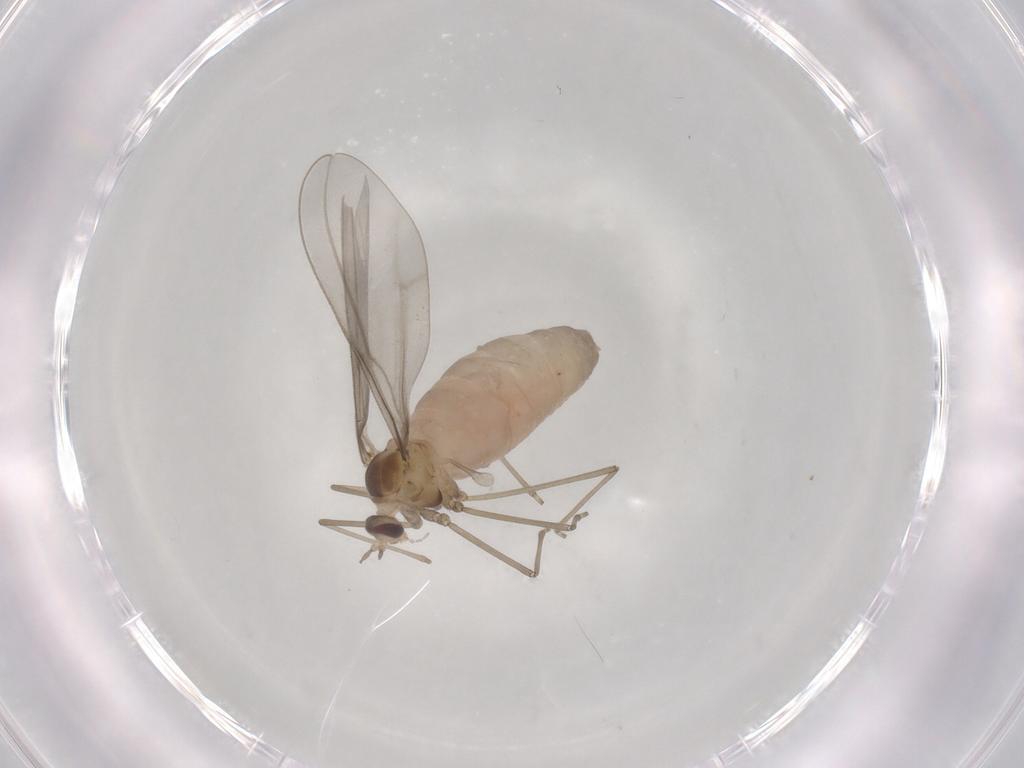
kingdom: Animalia
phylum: Arthropoda
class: Insecta
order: Diptera
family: Cecidomyiidae
